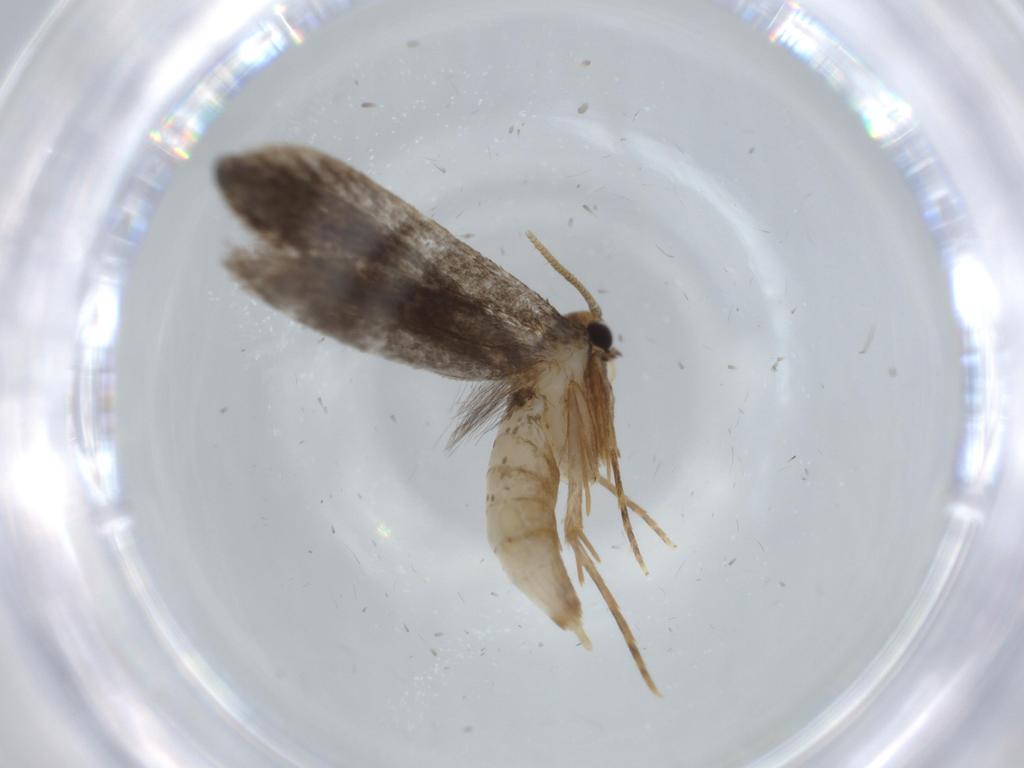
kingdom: Animalia
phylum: Arthropoda
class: Insecta
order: Lepidoptera
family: Tineidae
